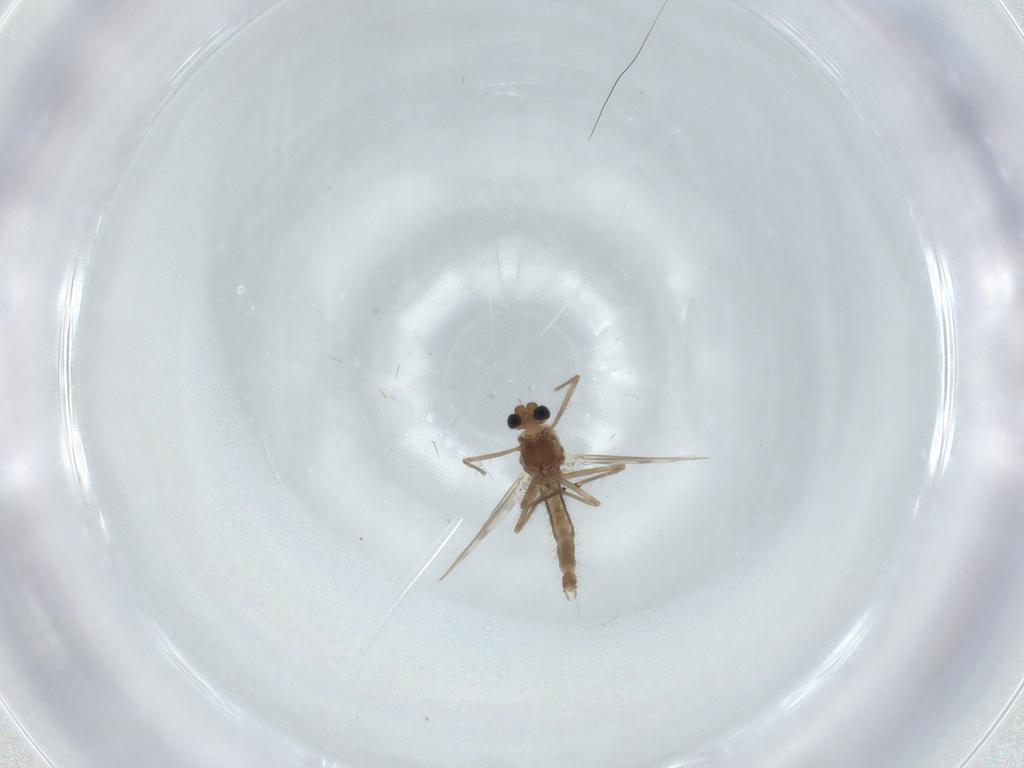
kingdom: Animalia
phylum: Arthropoda
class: Insecta
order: Diptera
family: Chironomidae
